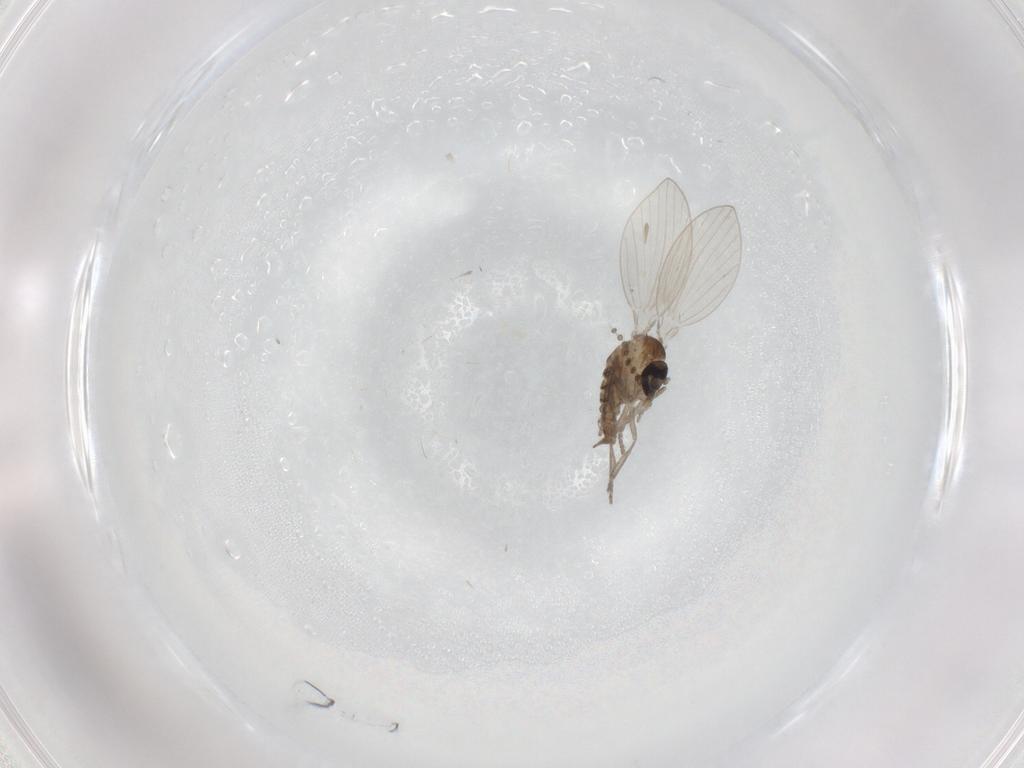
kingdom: Animalia
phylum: Arthropoda
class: Insecta
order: Diptera
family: Psychodidae
